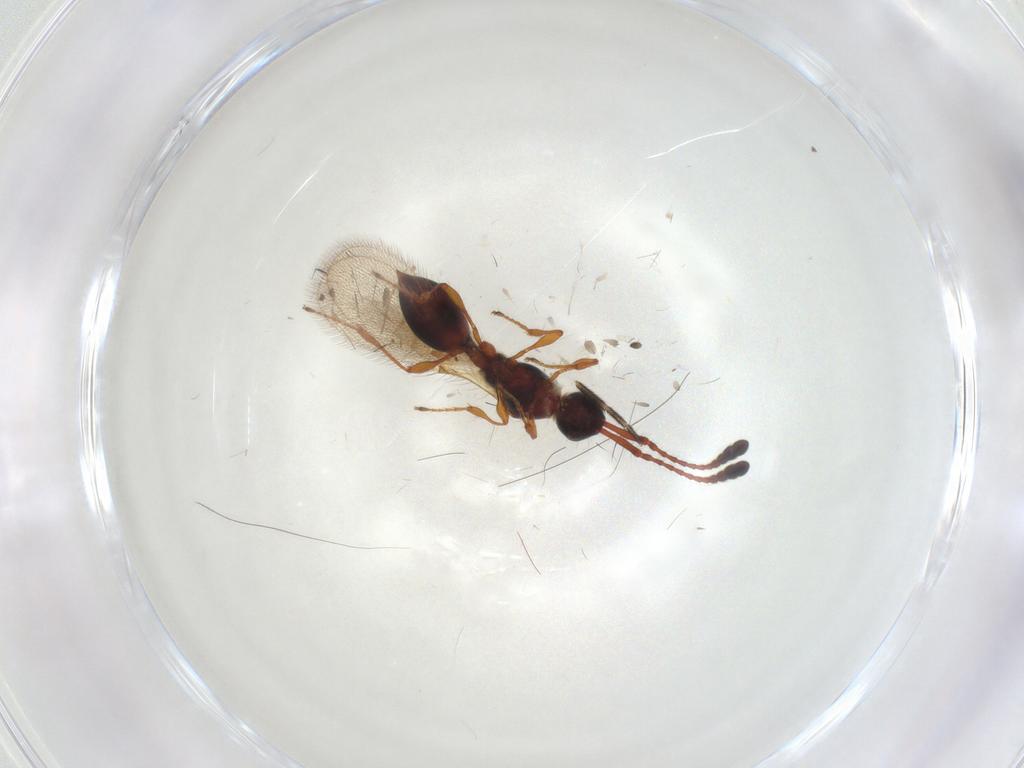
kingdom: Animalia
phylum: Arthropoda
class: Insecta
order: Hymenoptera
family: Diapriidae
